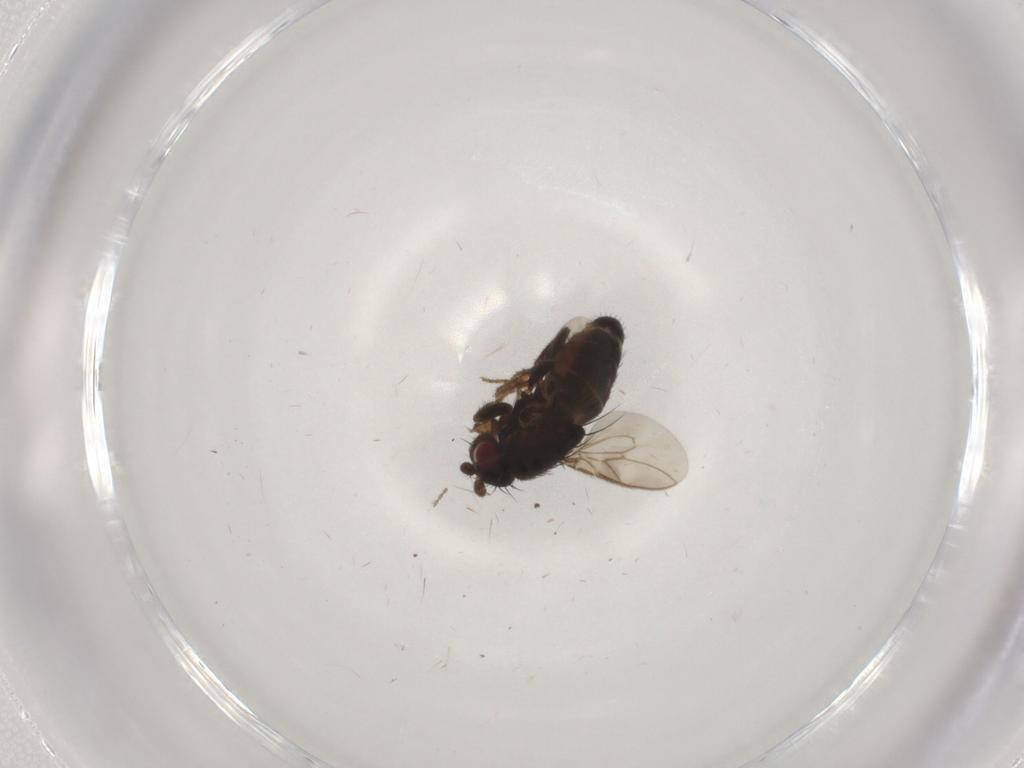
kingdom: Animalia
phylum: Arthropoda
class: Insecta
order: Diptera
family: Sphaeroceridae
